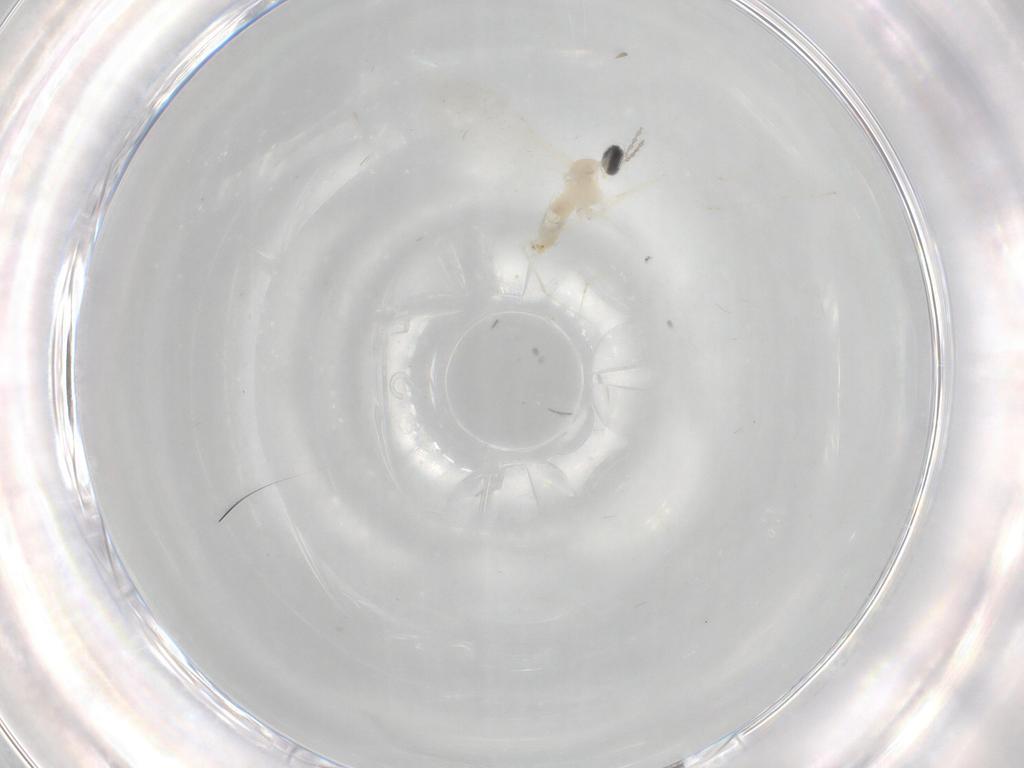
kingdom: Animalia
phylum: Arthropoda
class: Insecta
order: Diptera
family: Cecidomyiidae
